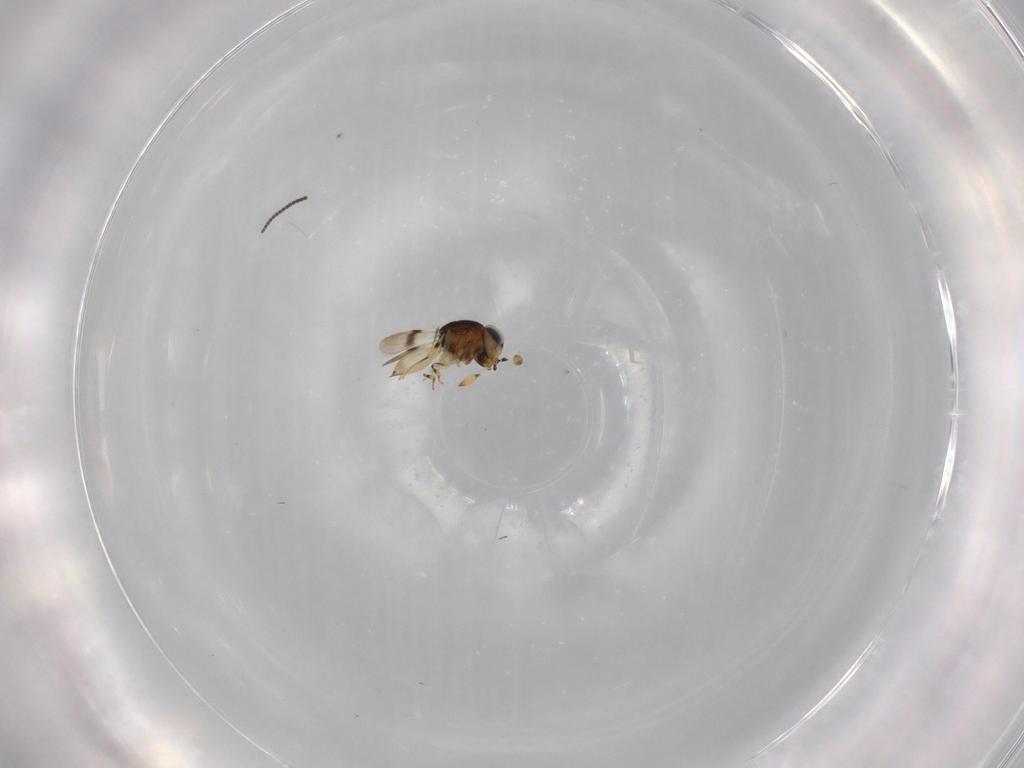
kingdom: Animalia
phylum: Arthropoda
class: Insecta
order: Hymenoptera
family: Scelionidae
